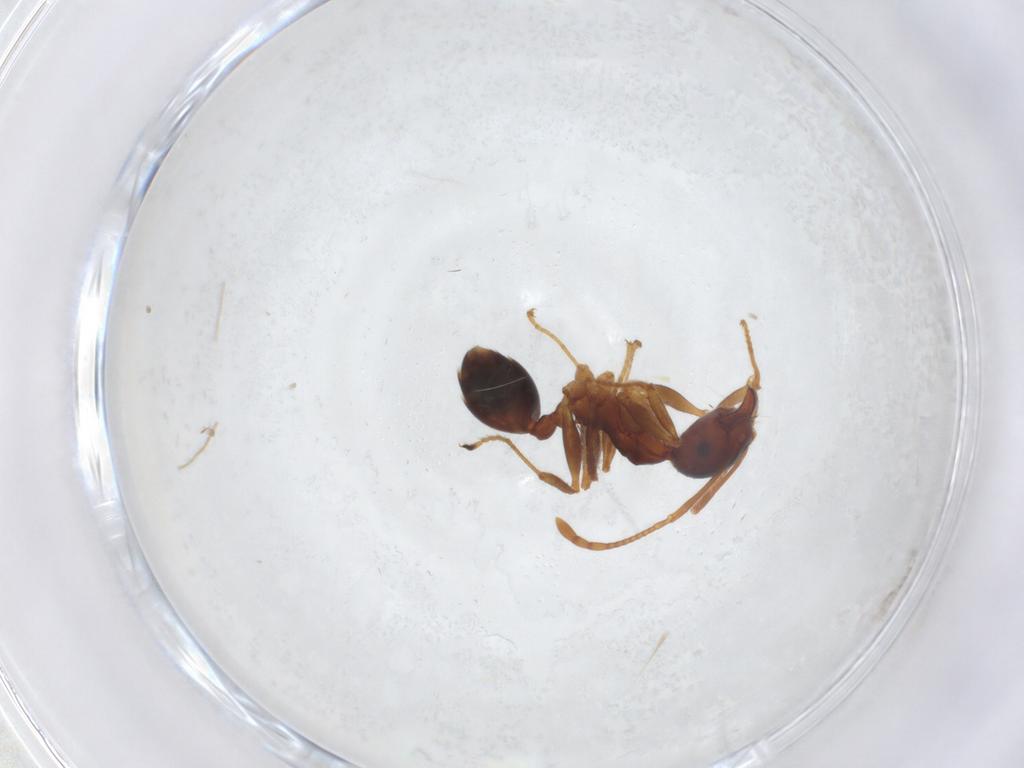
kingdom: Animalia
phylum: Arthropoda
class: Insecta
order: Hymenoptera
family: Formicidae
